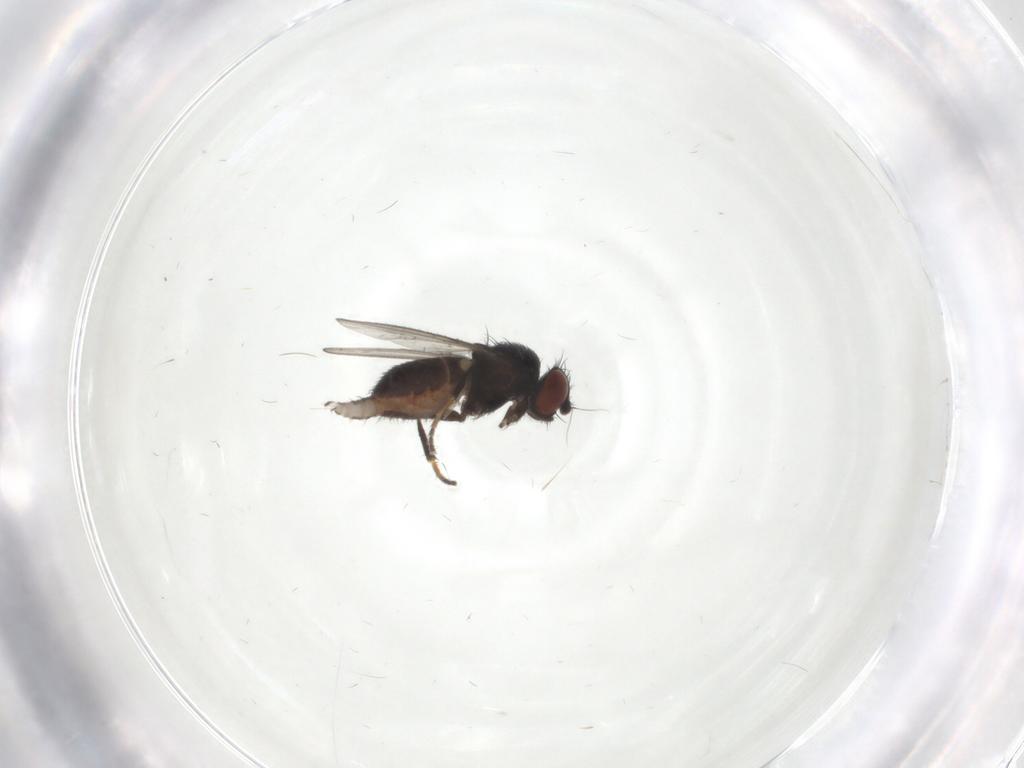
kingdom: Animalia
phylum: Arthropoda
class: Insecta
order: Diptera
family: Milichiidae
